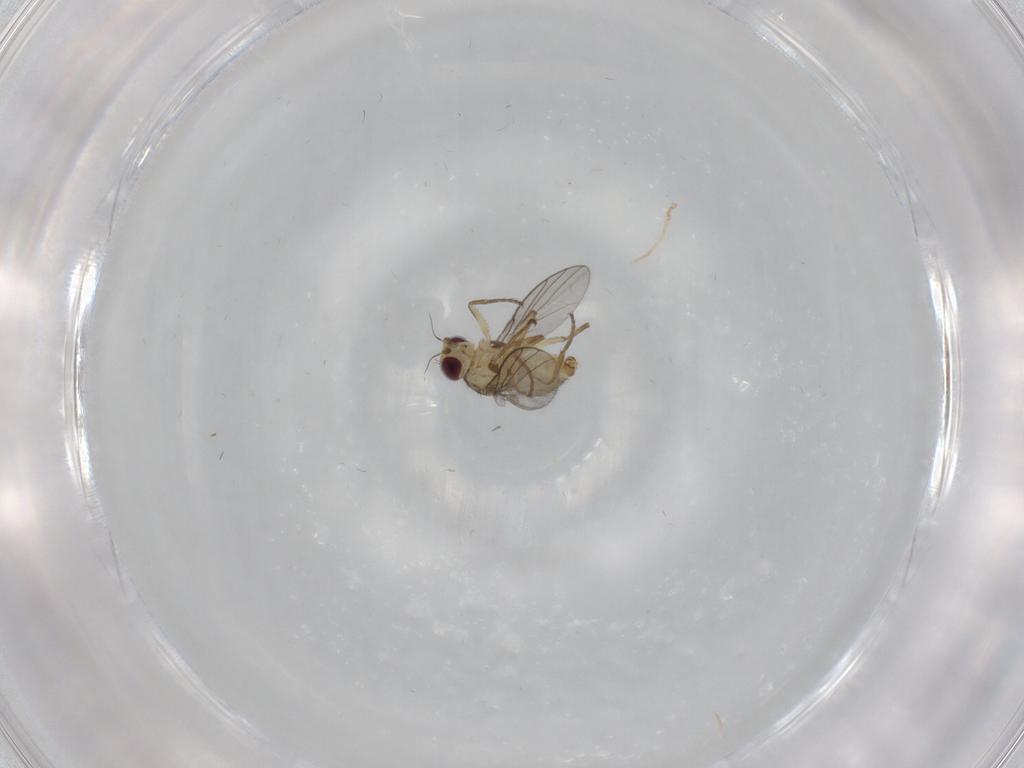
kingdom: Animalia
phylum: Arthropoda
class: Insecta
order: Diptera
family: Agromyzidae
